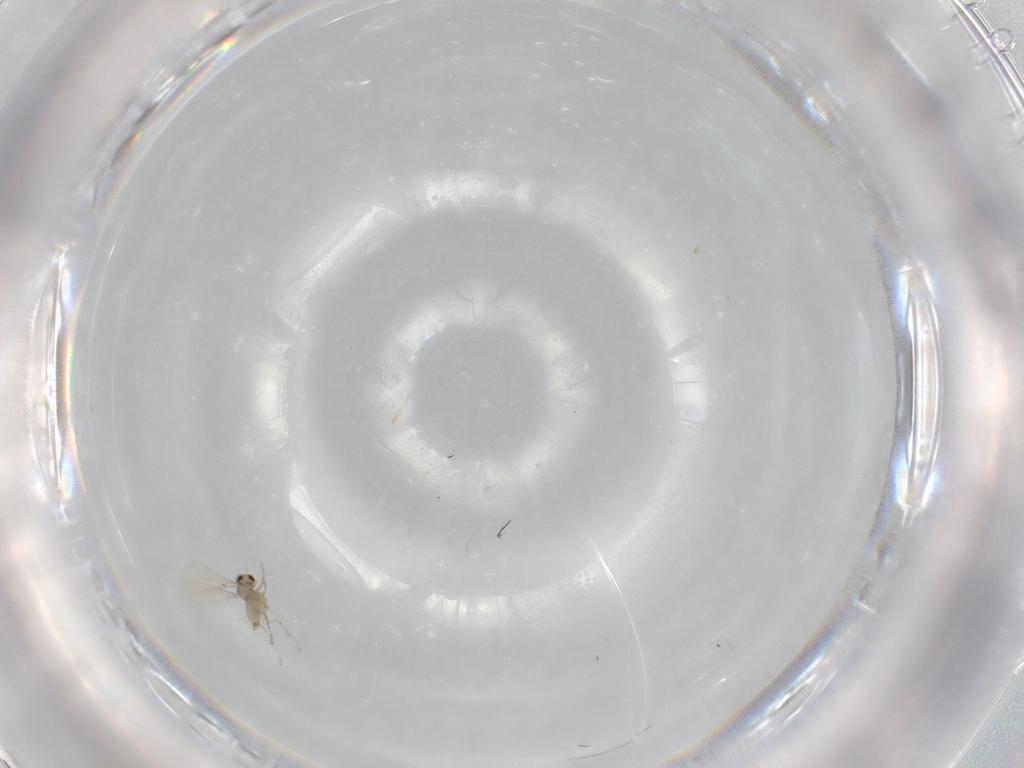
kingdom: Animalia
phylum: Arthropoda
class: Insecta
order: Diptera
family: Cecidomyiidae
